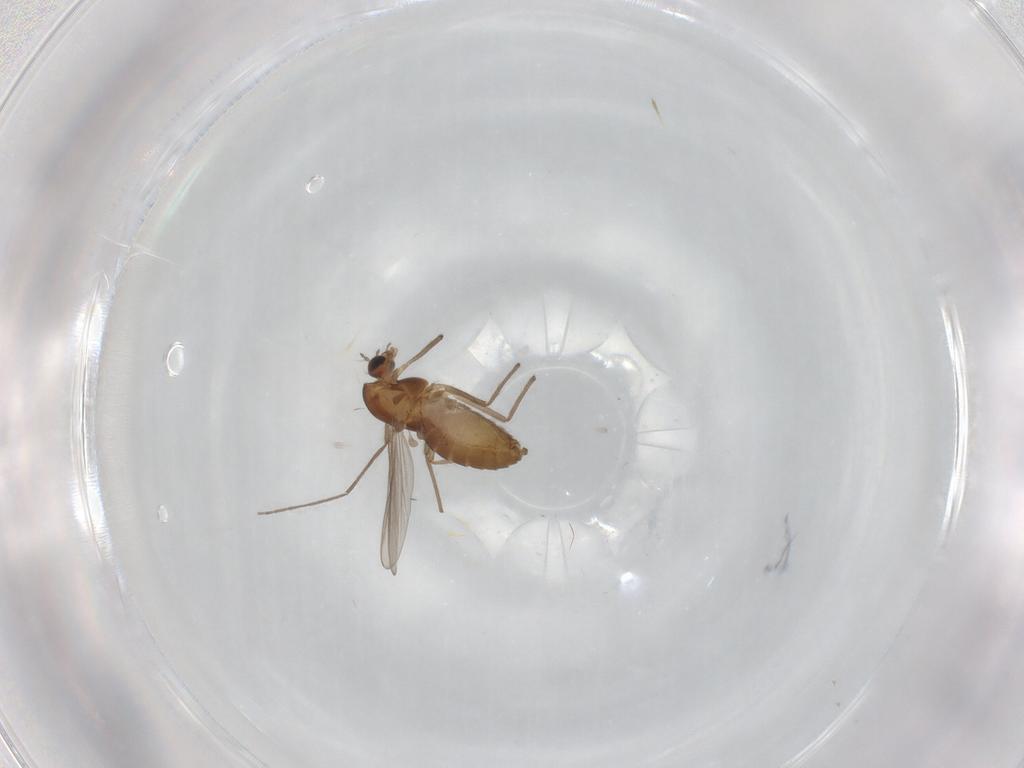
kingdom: Animalia
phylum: Arthropoda
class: Insecta
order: Diptera
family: Chironomidae
